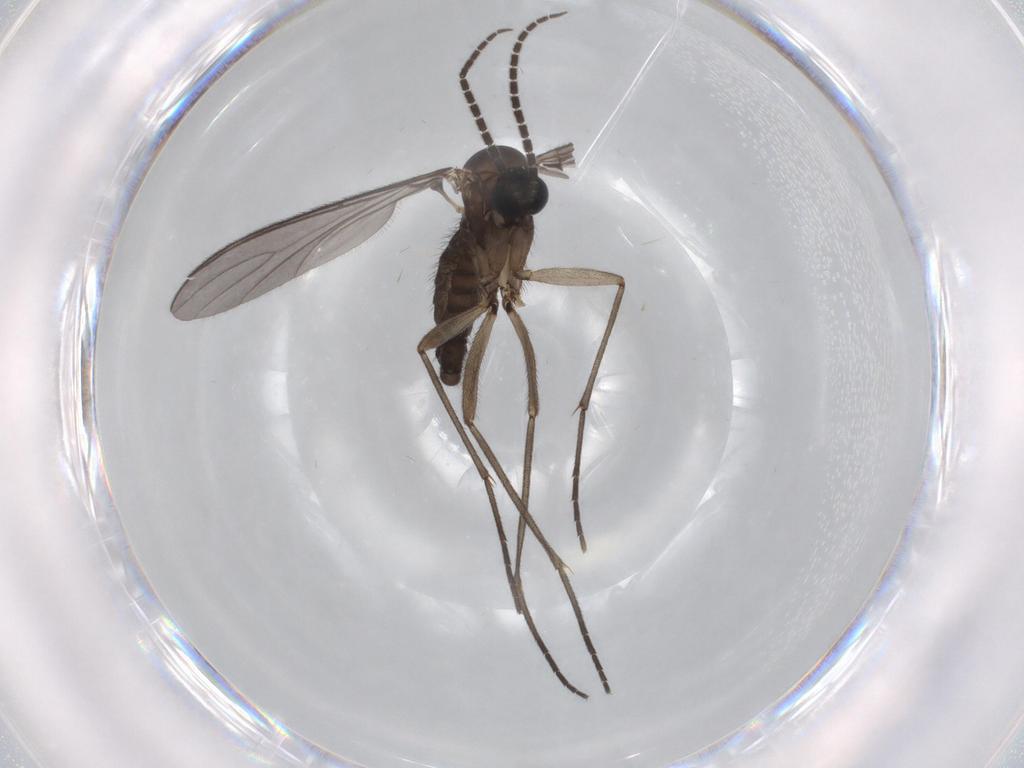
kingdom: Animalia
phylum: Arthropoda
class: Insecta
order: Diptera
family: Sciaridae
